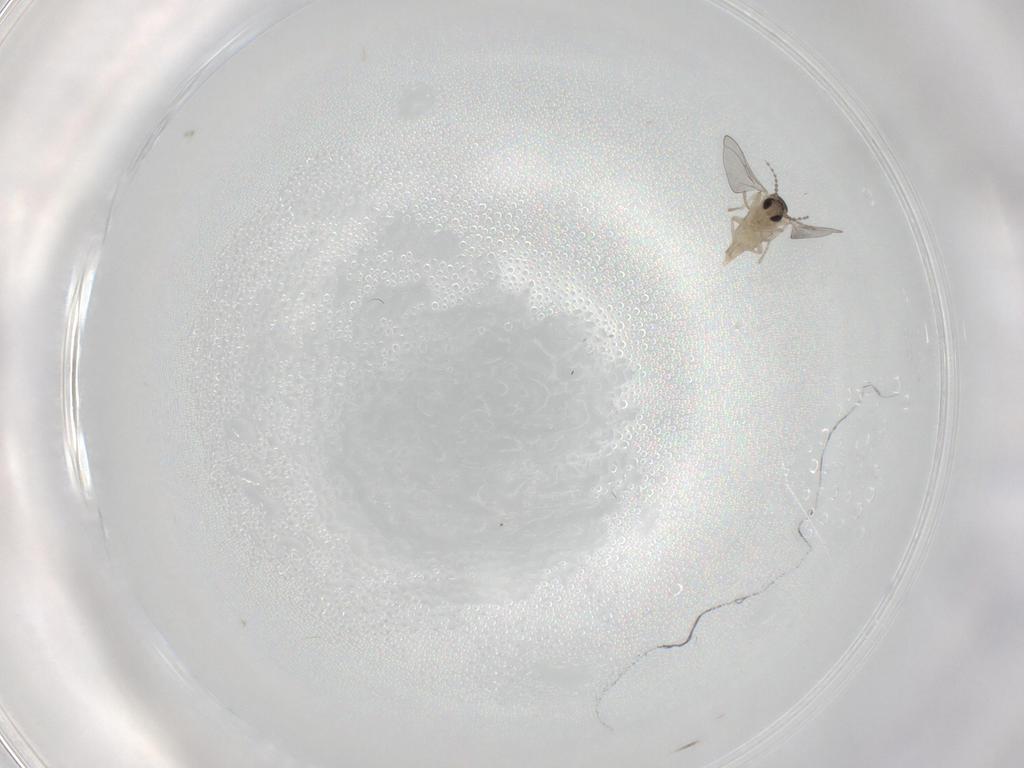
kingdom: Animalia
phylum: Arthropoda
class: Insecta
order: Diptera
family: Cecidomyiidae
